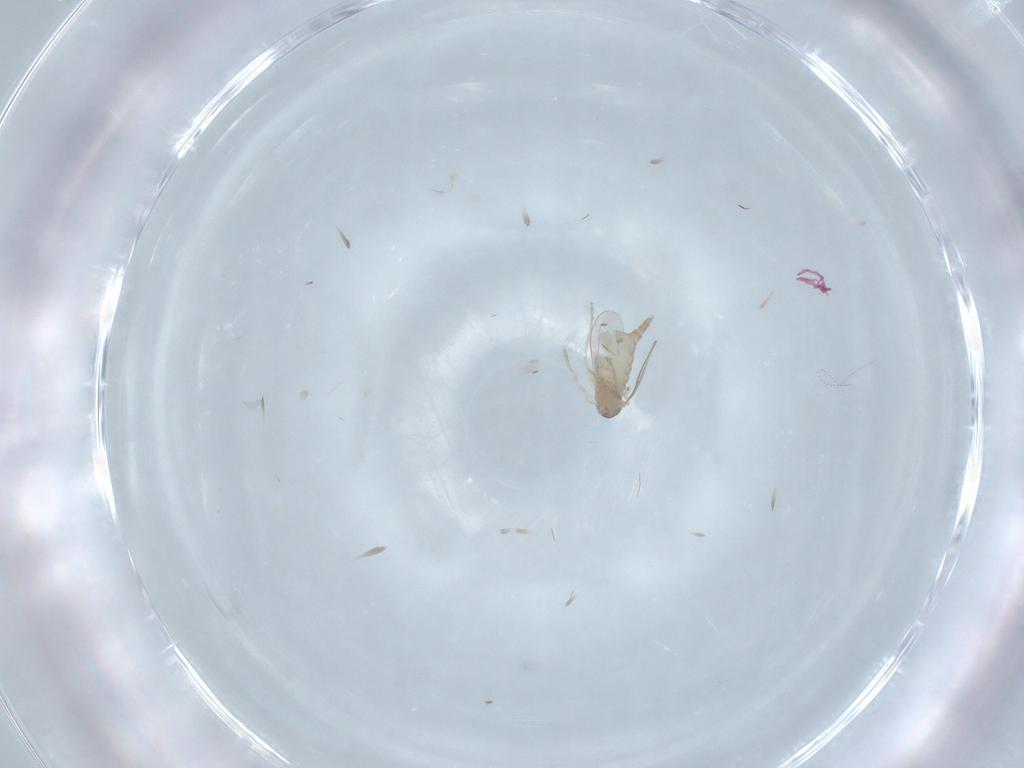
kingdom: Animalia
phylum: Arthropoda
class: Insecta
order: Diptera
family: Cecidomyiidae
